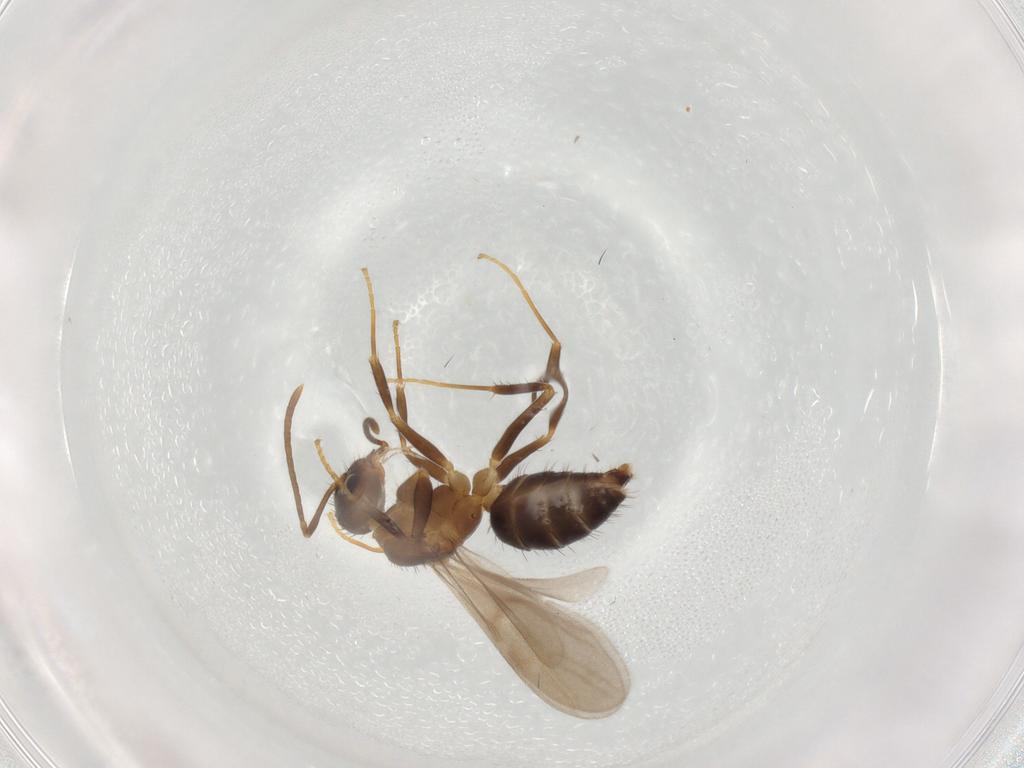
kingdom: Animalia
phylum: Arthropoda
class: Insecta
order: Hymenoptera
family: Formicidae
